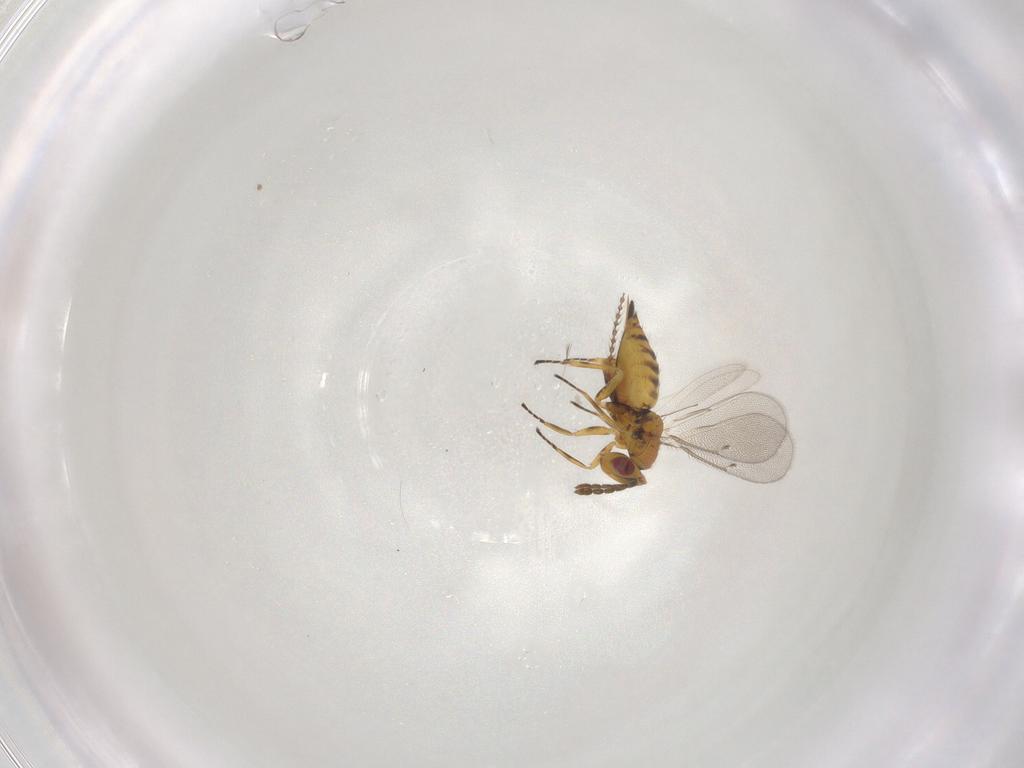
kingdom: Animalia
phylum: Arthropoda
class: Insecta
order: Hymenoptera
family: Eulophidae
